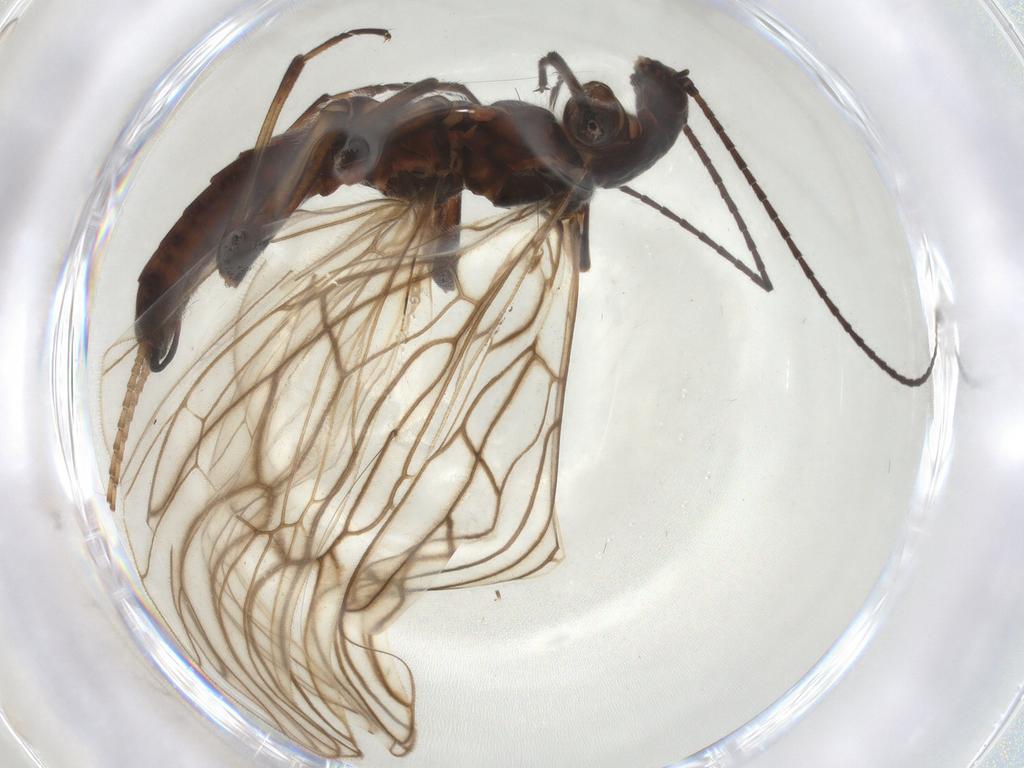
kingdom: Animalia
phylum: Arthropoda
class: Insecta
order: Plecoptera
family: Capniidae
